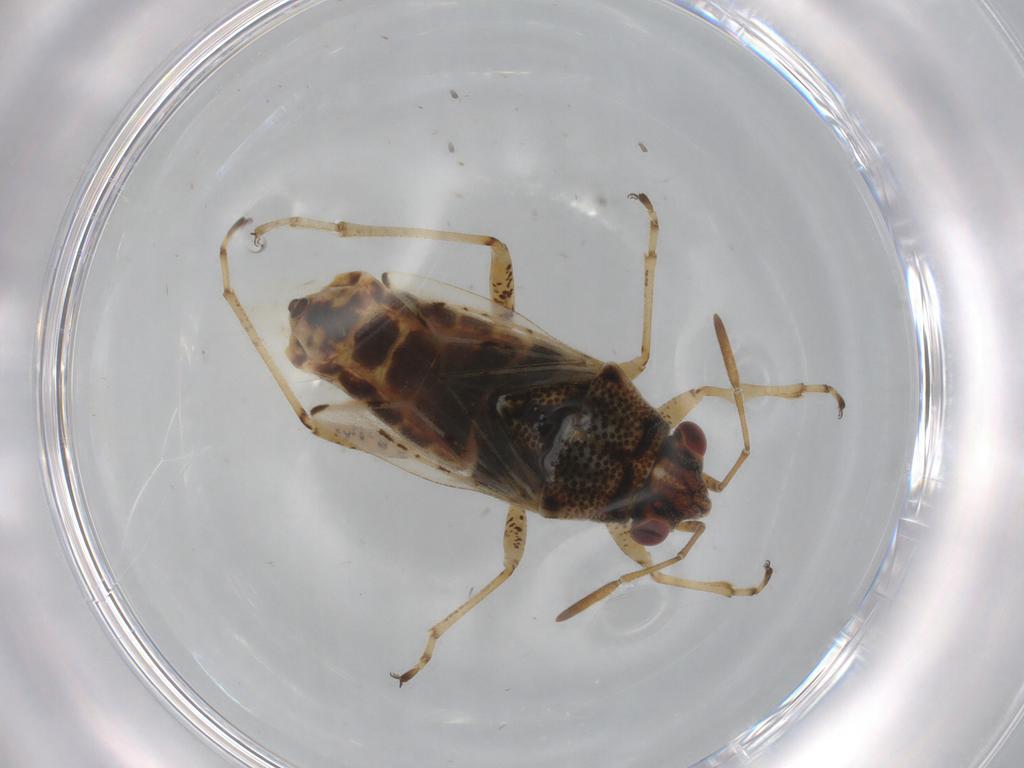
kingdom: Animalia
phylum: Arthropoda
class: Insecta
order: Hemiptera
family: Lygaeidae
